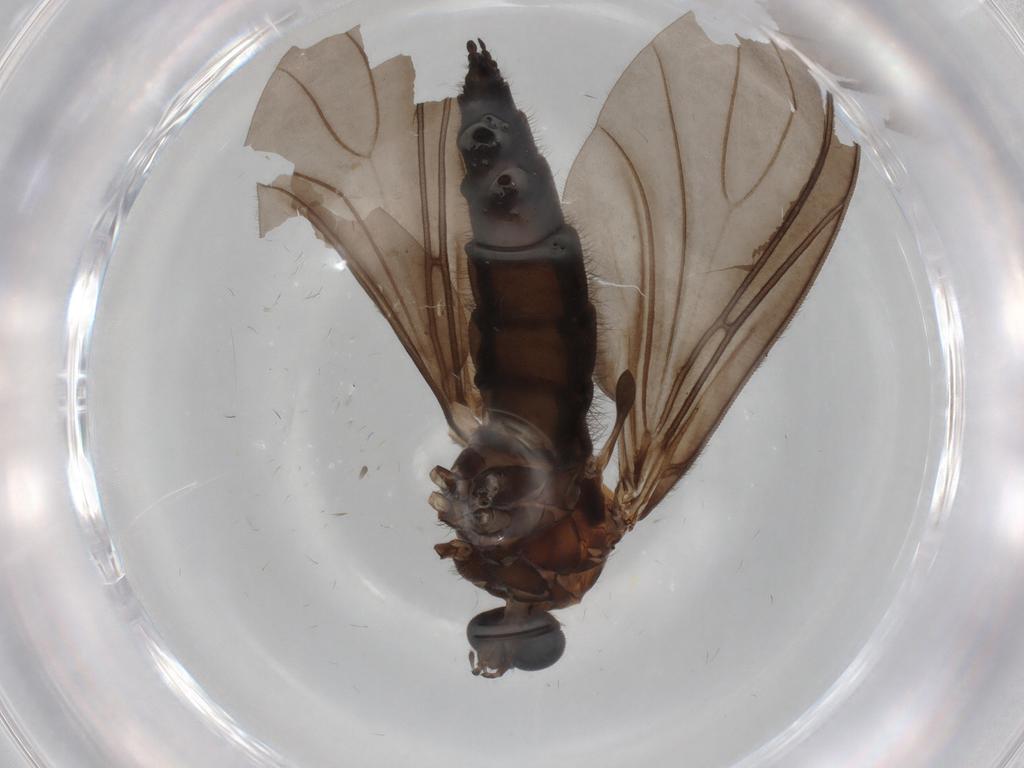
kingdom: Animalia
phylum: Arthropoda
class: Insecta
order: Diptera
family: Sciaridae
